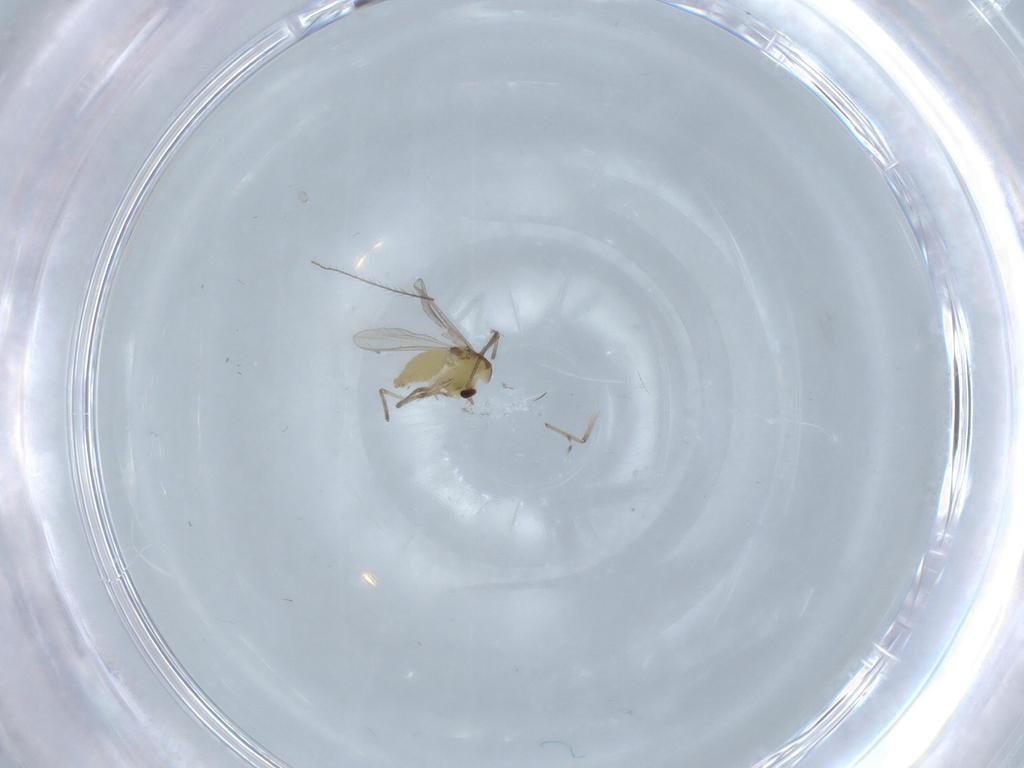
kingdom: Animalia
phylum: Arthropoda
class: Insecta
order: Diptera
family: Chironomidae
